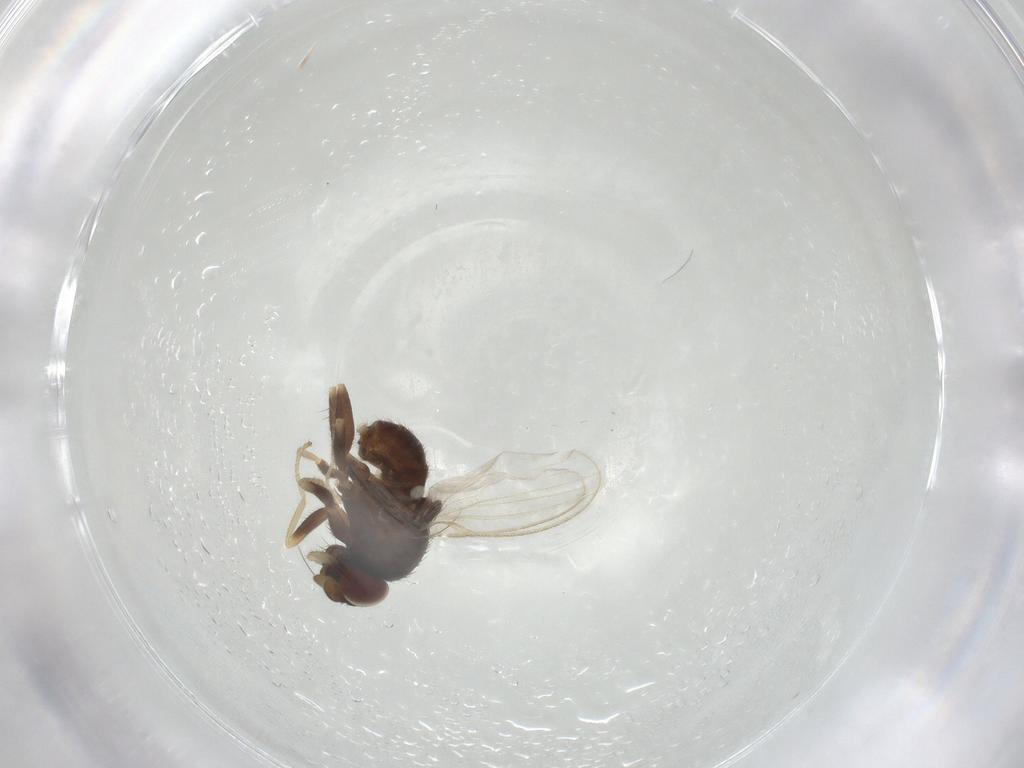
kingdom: Animalia
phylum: Arthropoda
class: Insecta
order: Diptera
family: Milichiidae
